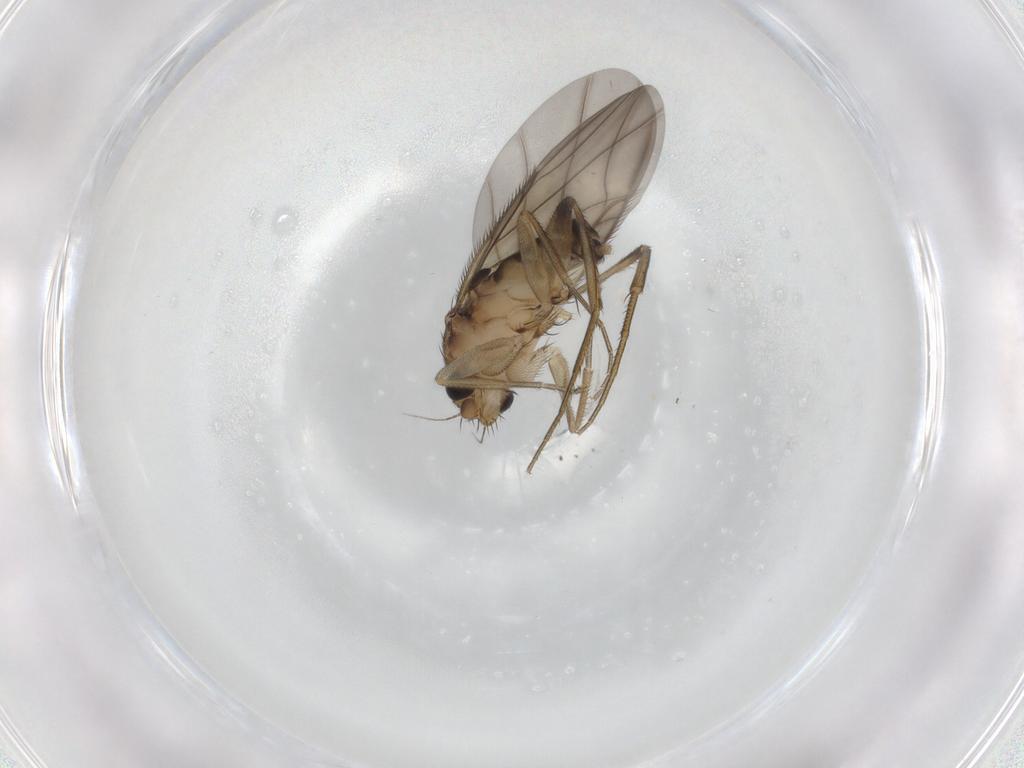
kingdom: Animalia
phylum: Arthropoda
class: Insecta
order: Diptera
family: Phoridae
